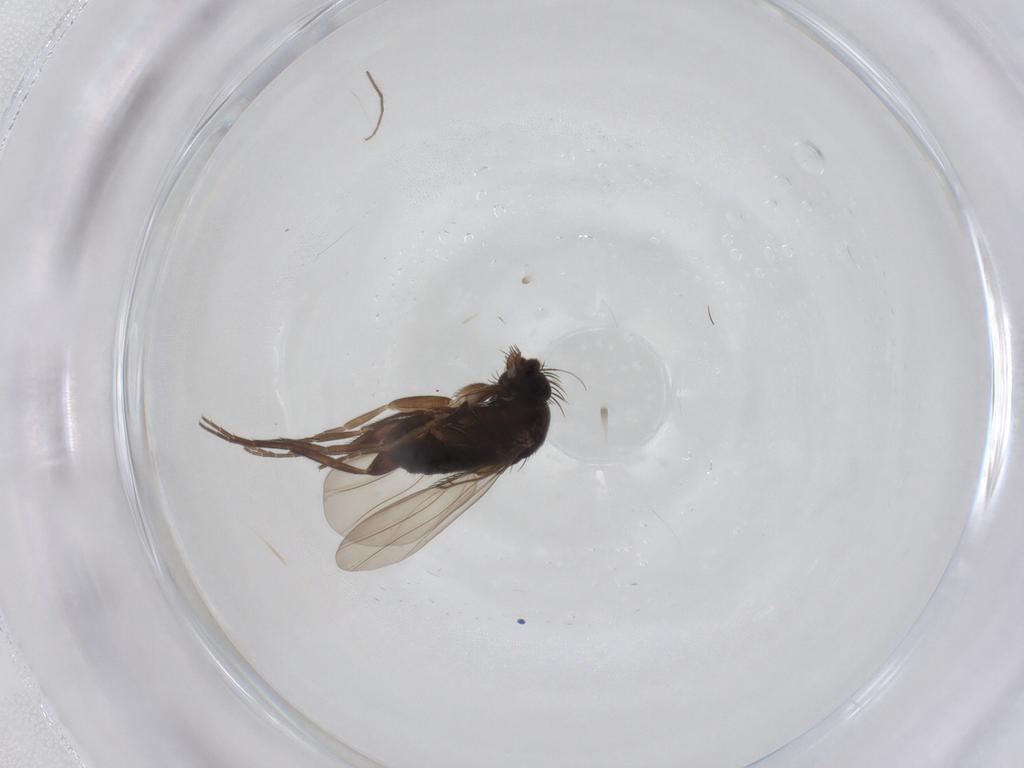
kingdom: Animalia
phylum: Arthropoda
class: Insecta
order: Diptera
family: Phoridae
